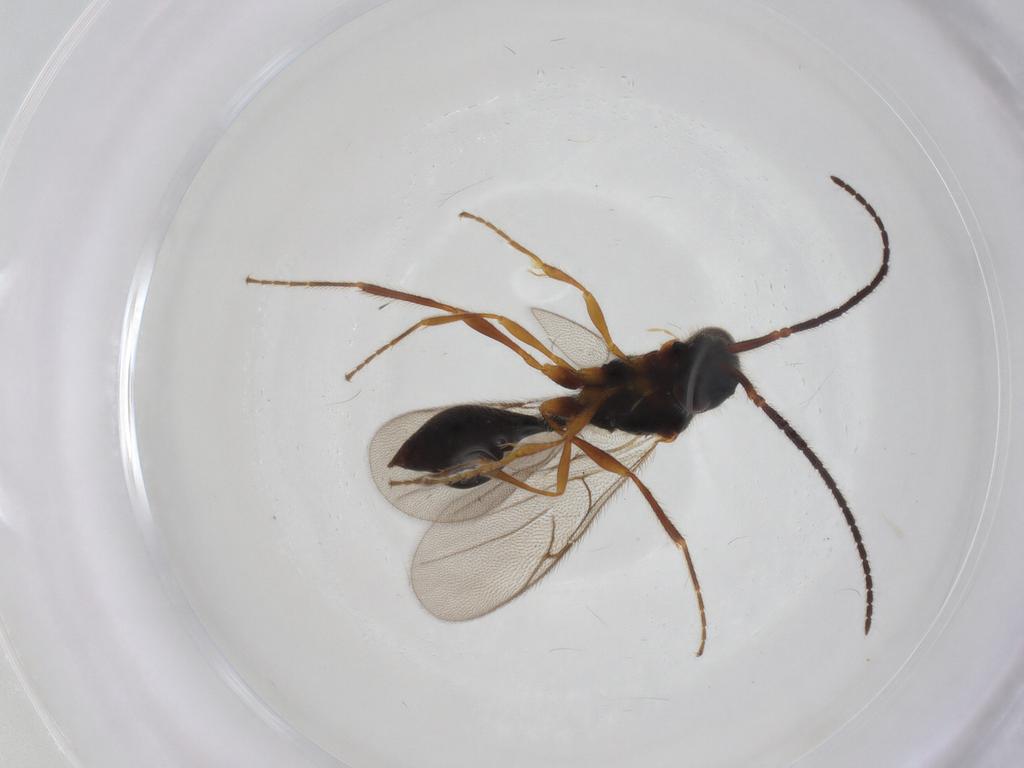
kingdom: Animalia
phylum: Arthropoda
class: Insecta
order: Hymenoptera
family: Diapriidae
